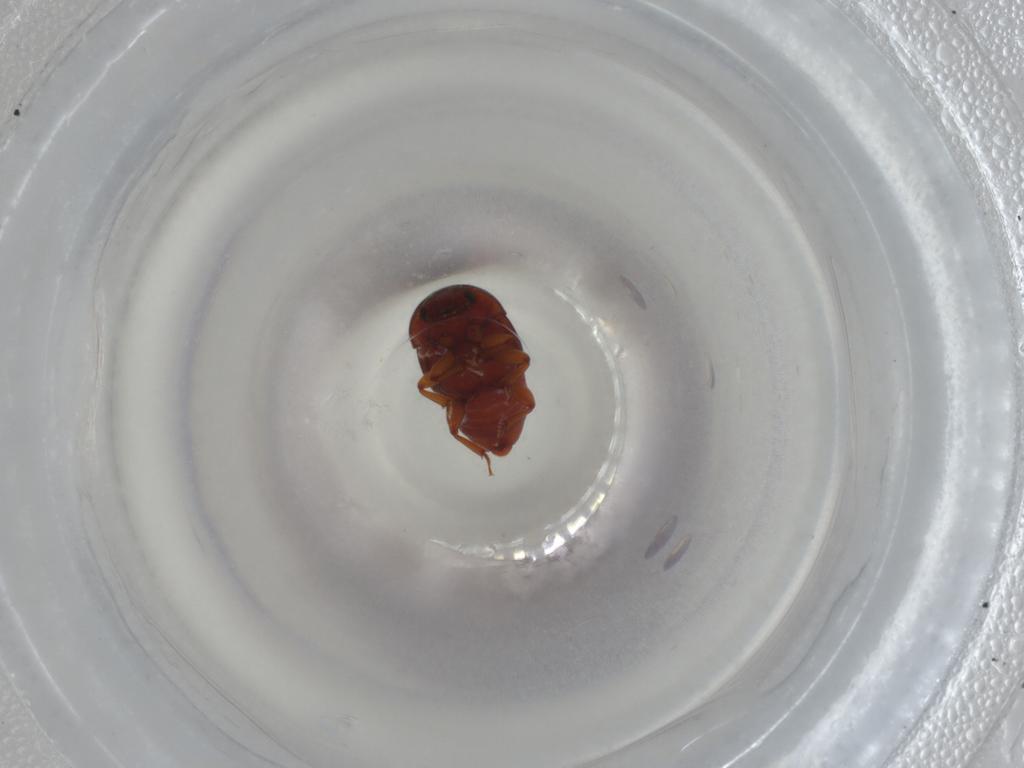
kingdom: Animalia
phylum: Arthropoda
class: Insecta
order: Coleoptera
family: Nitidulidae
